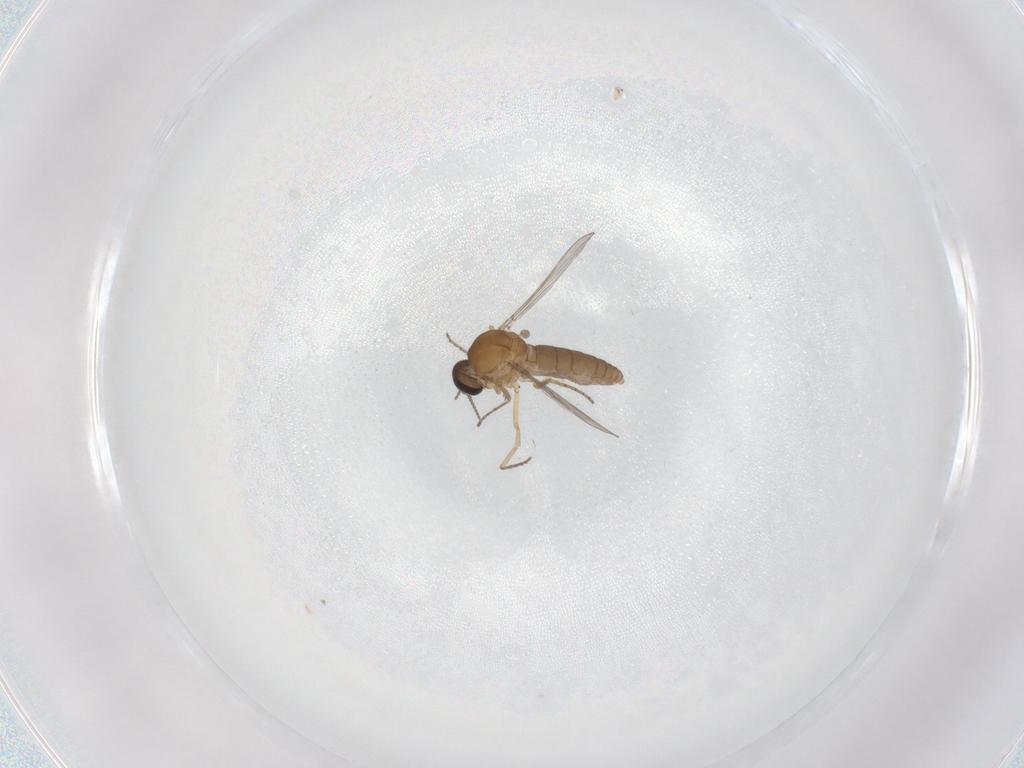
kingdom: Animalia
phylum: Arthropoda
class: Insecta
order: Diptera
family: Ceratopogonidae
